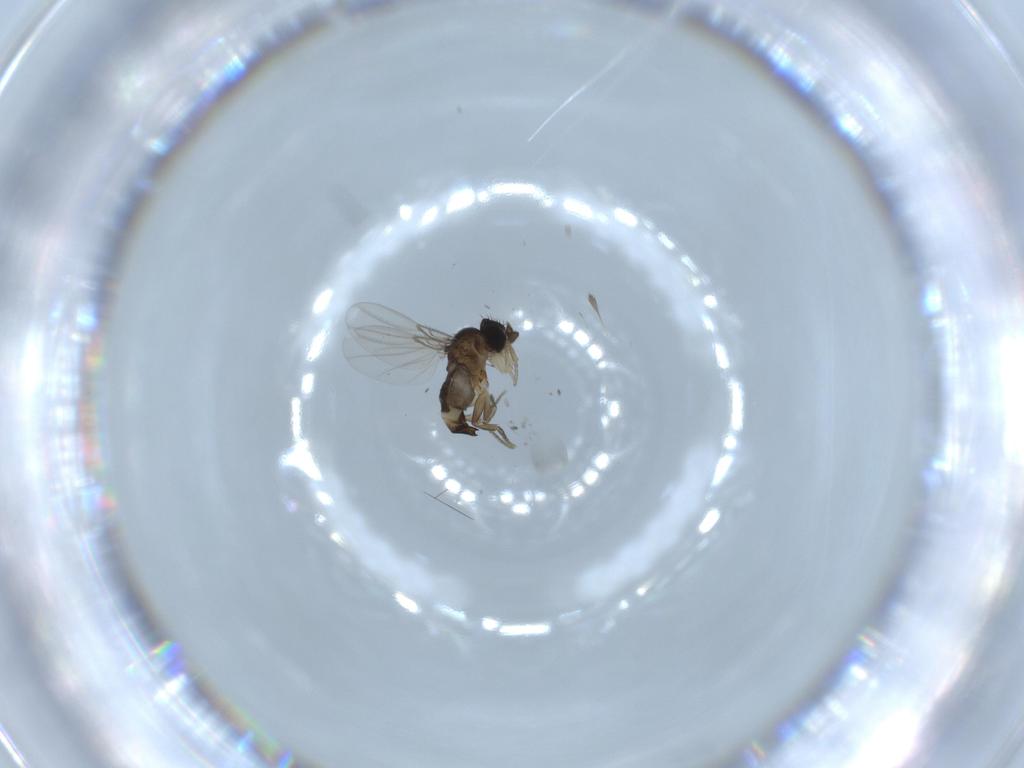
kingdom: Animalia
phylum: Arthropoda
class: Insecta
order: Diptera
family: Phoridae
